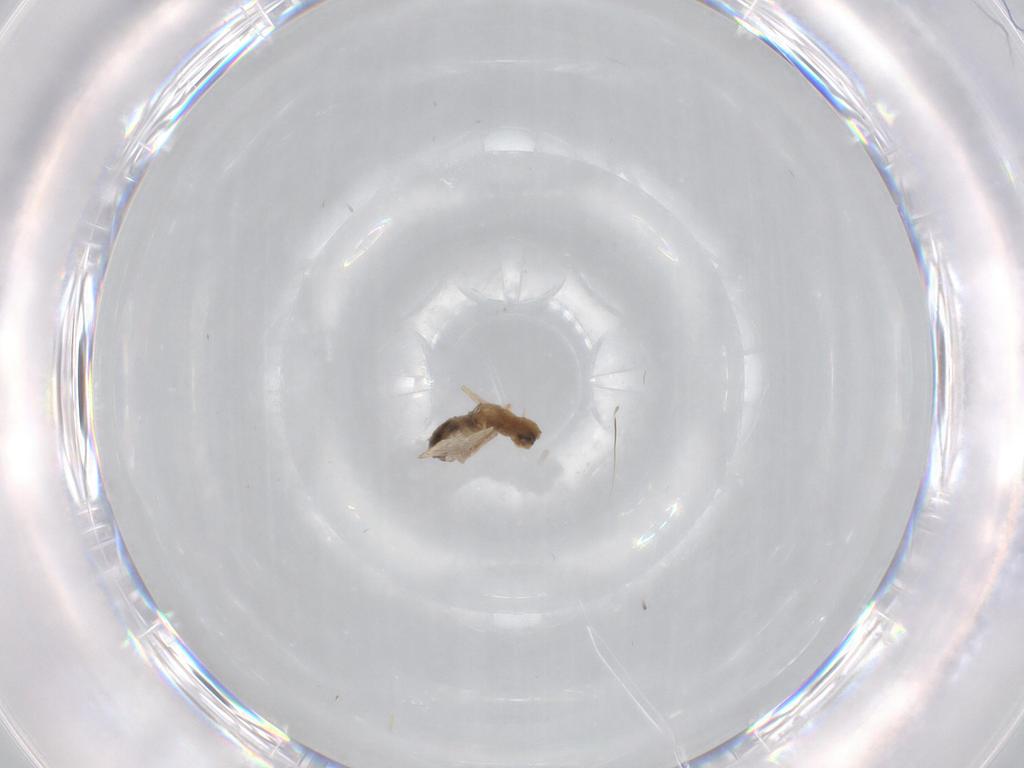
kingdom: Animalia
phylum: Arthropoda
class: Insecta
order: Diptera
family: Psychodidae
